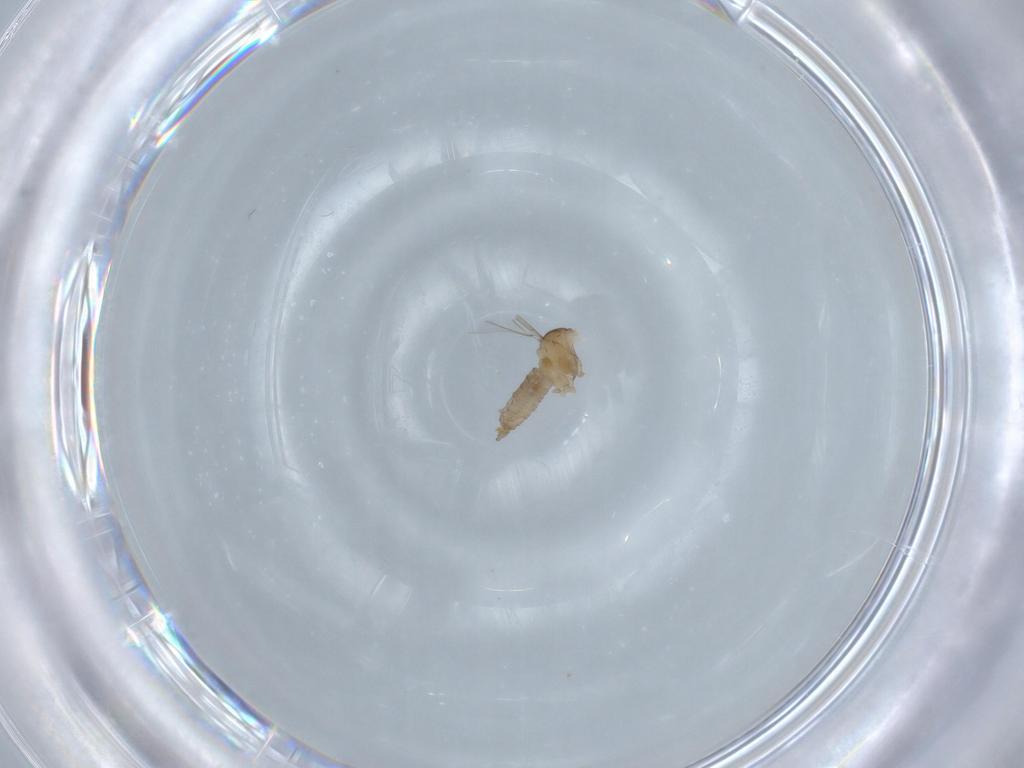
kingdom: Animalia
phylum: Arthropoda
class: Insecta
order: Diptera
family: Cecidomyiidae
